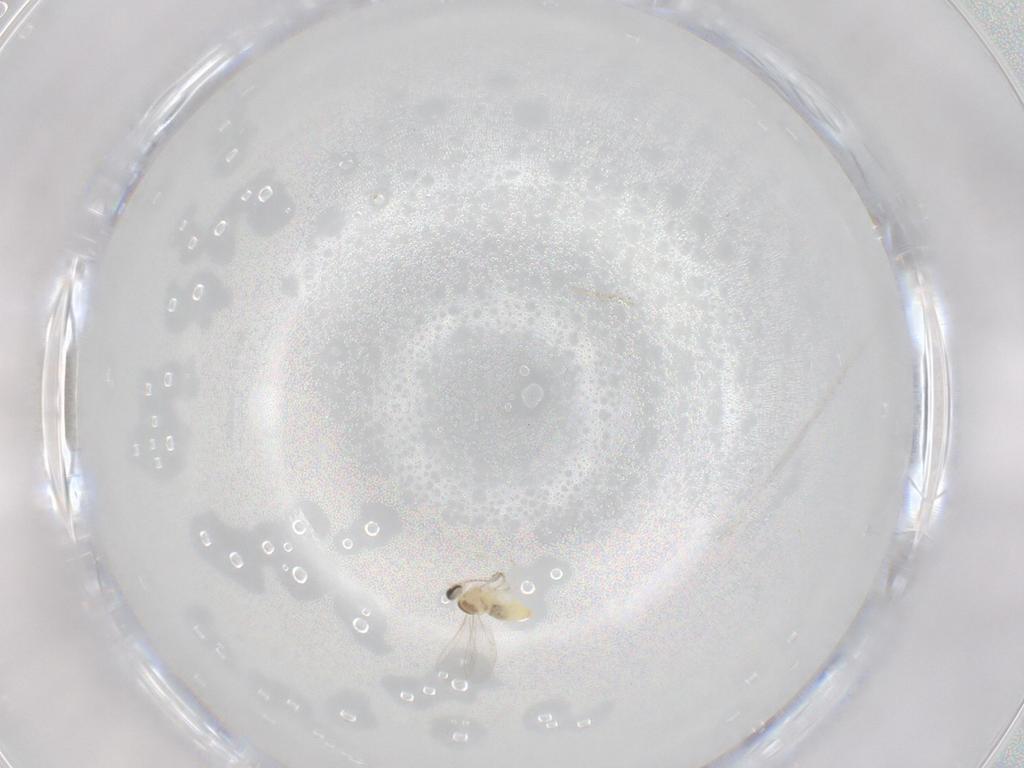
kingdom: Animalia
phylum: Arthropoda
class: Insecta
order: Diptera
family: Cecidomyiidae
